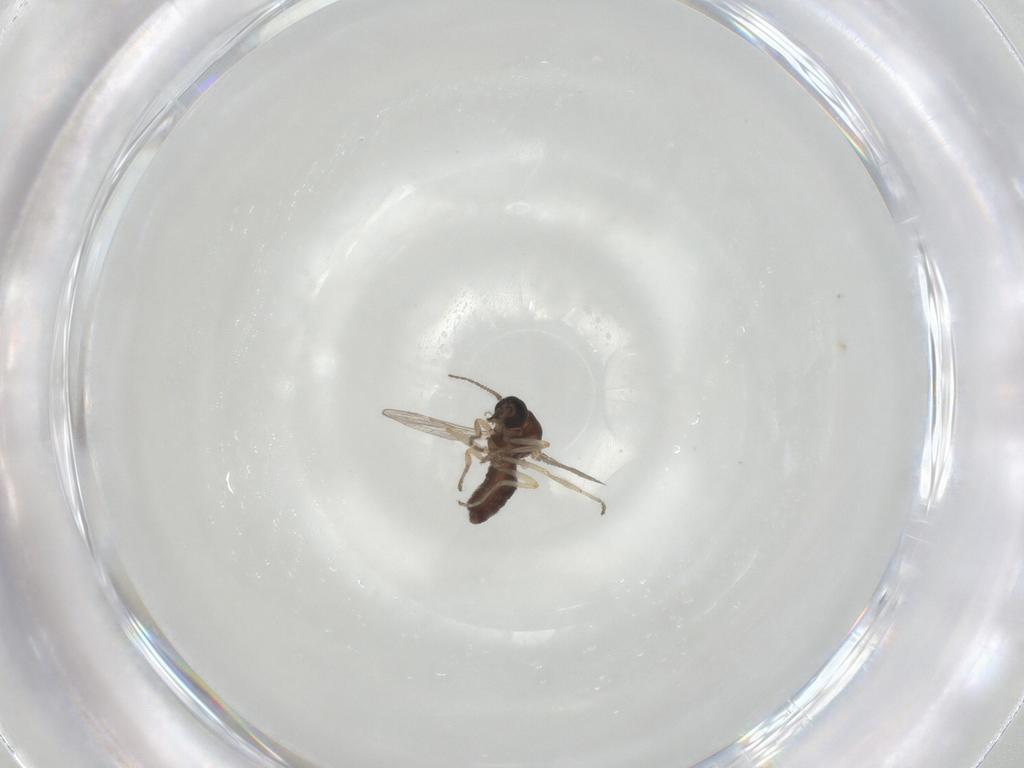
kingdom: Animalia
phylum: Arthropoda
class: Insecta
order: Diptera
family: Ceratopogonidae
